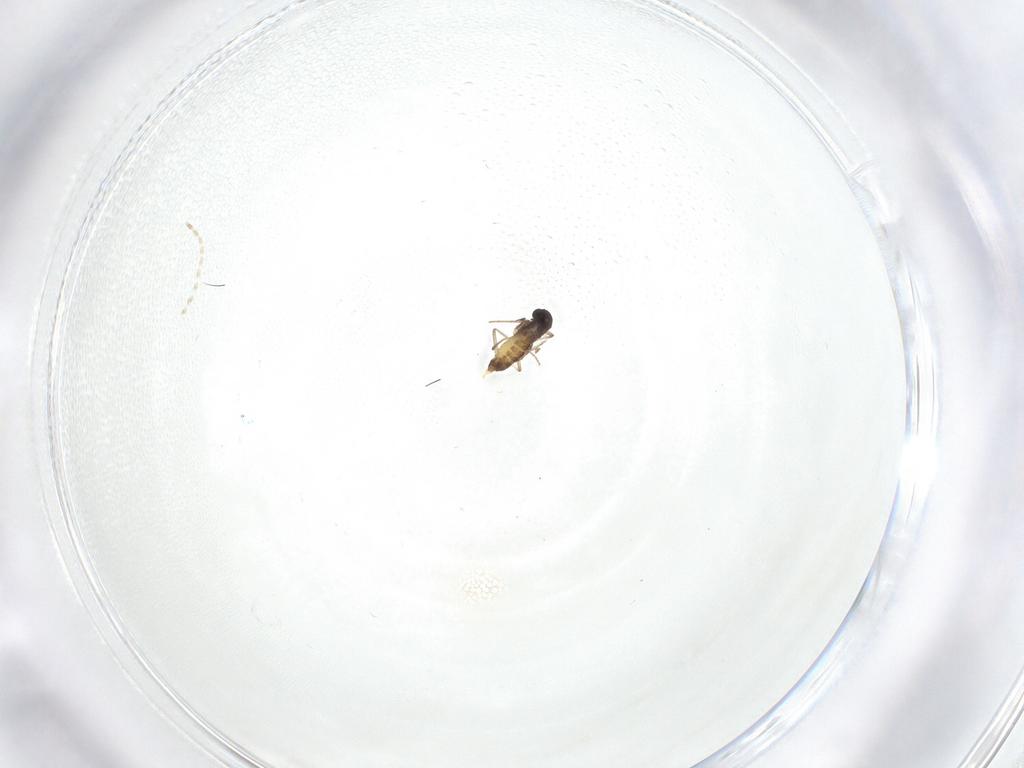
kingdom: Animalia
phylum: Arthropoda
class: Insecta
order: Diptera
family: Chironomidae
